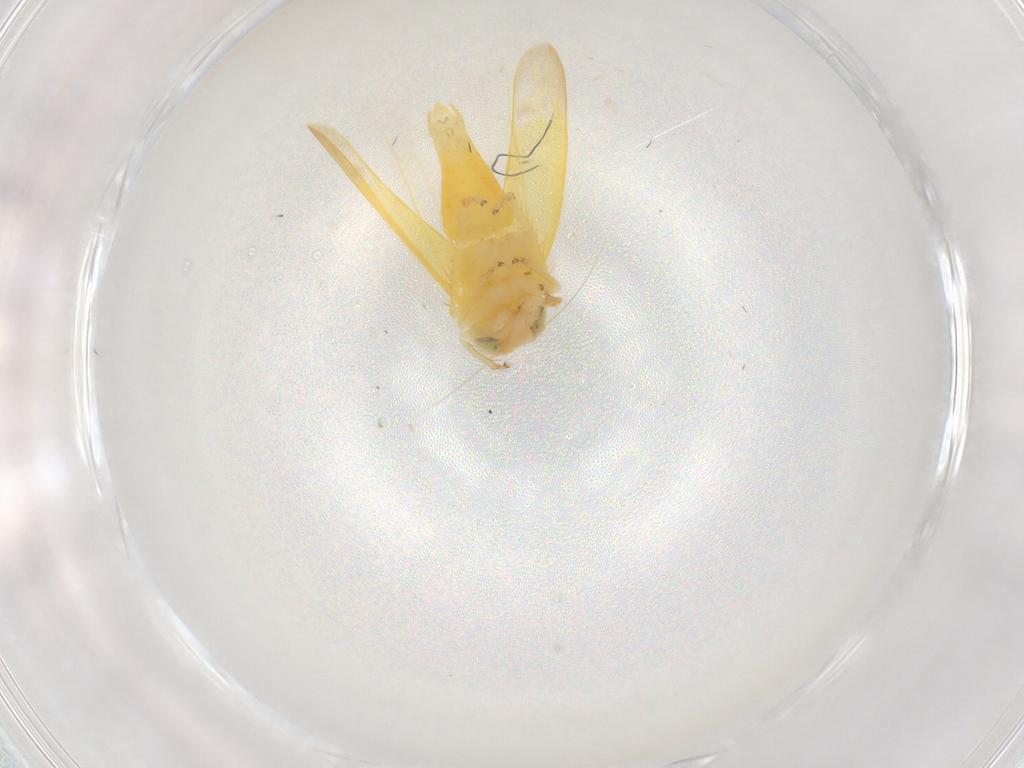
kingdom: Animalia
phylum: Arthropoda
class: Insecta
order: Hemiptera
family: Cicadellidae
